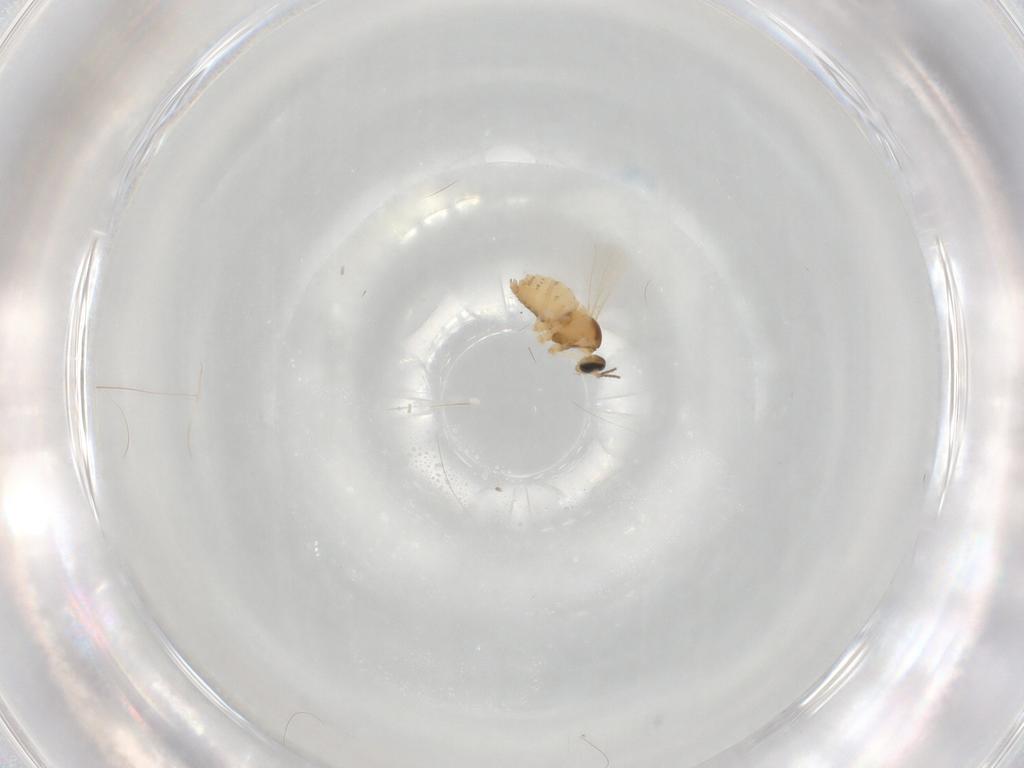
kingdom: Animalia
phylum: Arthropoda
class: Insecta
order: Diptera
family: Cecidomyiidae
